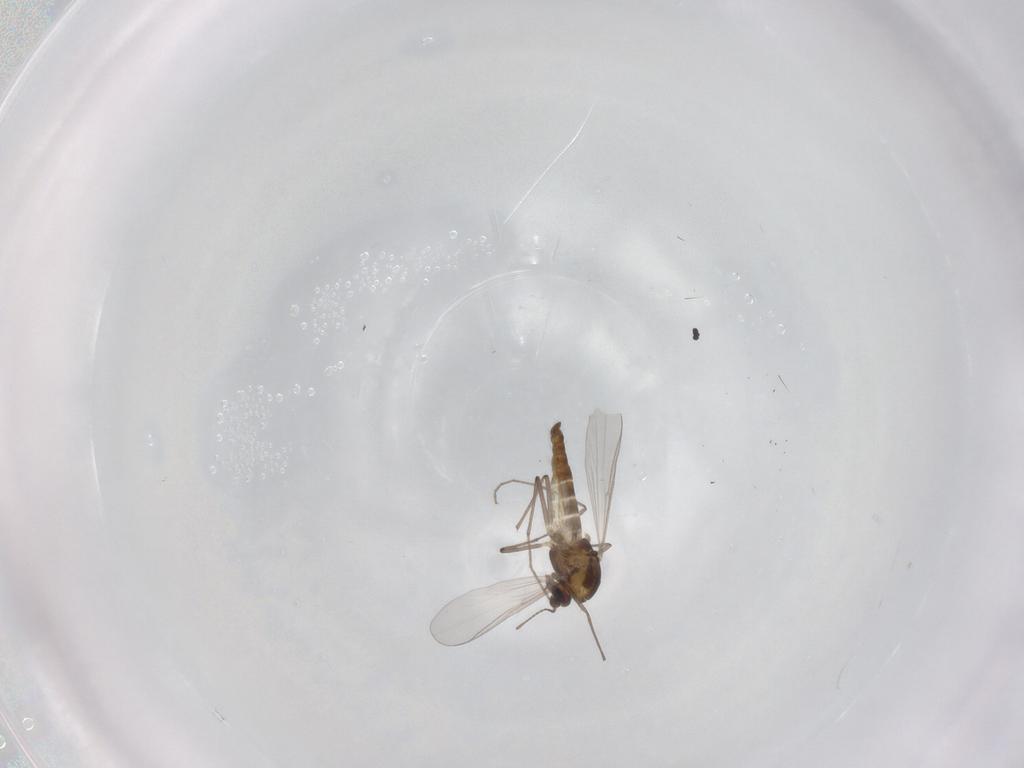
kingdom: Animalia
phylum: Arthropoda
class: Insecta
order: Diptera
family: Chironomidae
